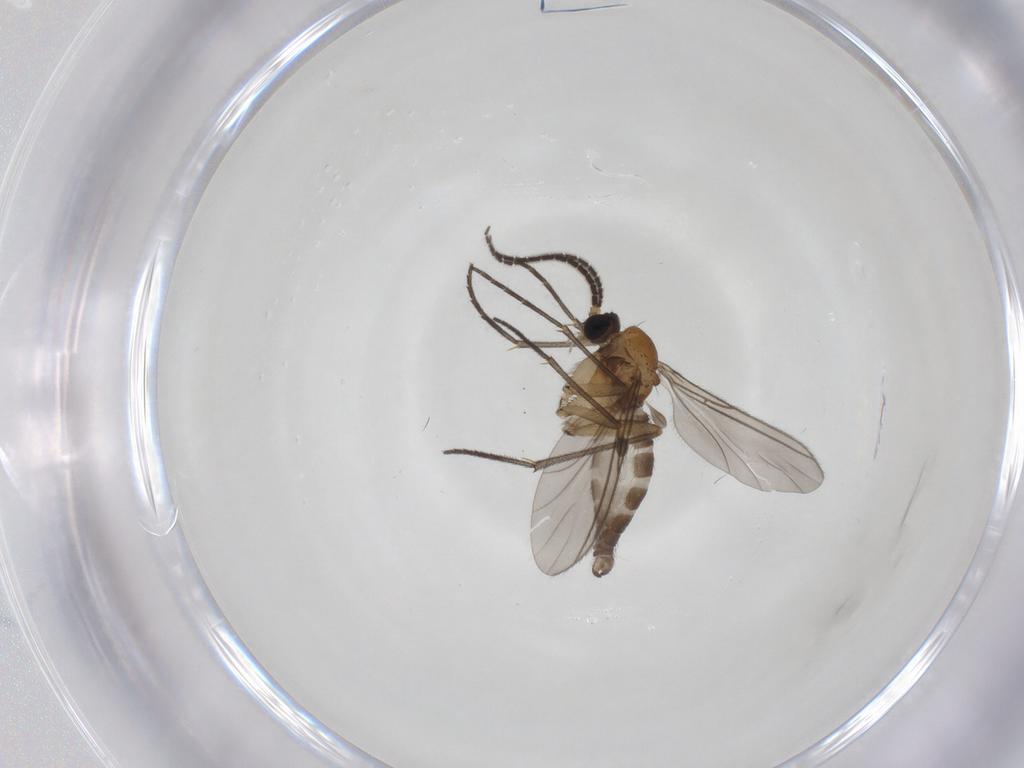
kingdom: Animalia
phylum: Arthropoda
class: Insecta
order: Diptera
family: Sciaridae
